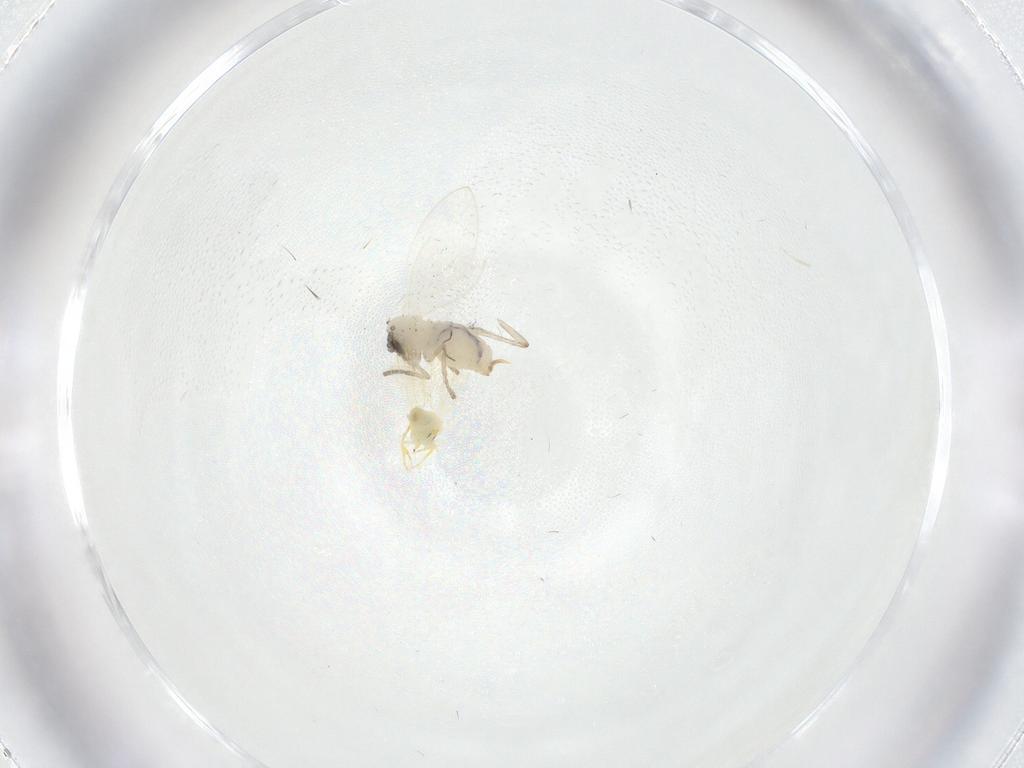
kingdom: Animalia
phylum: Arthropoda
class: Insecta
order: Diptera
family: Psychodidae
